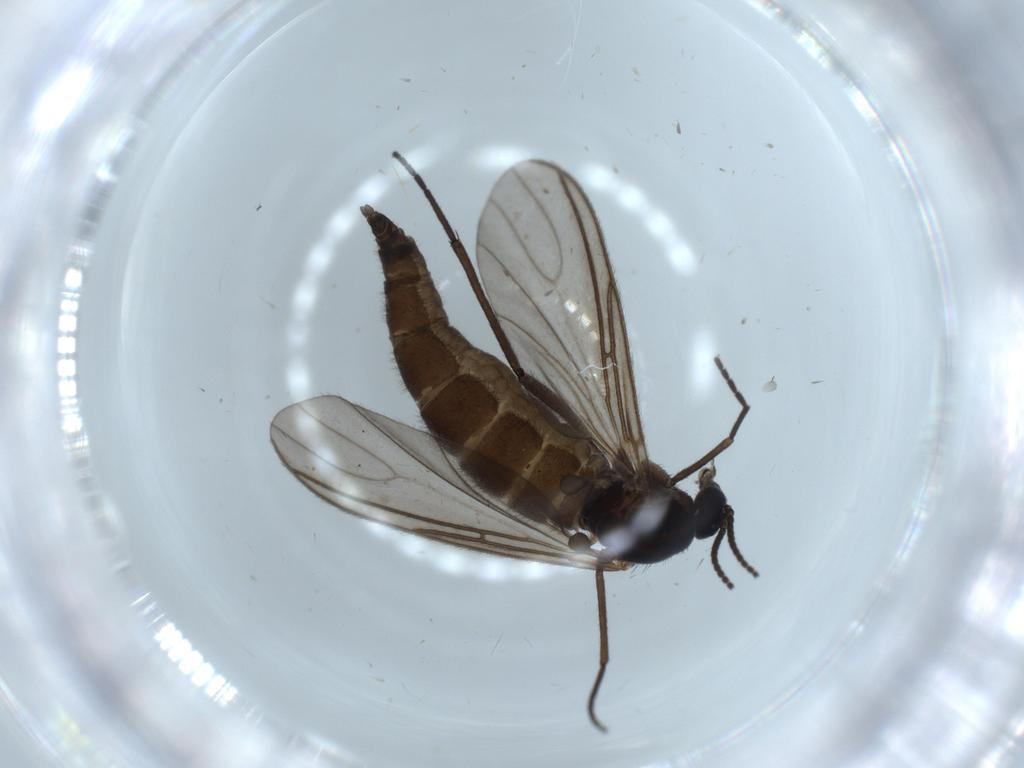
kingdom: Animalia
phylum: Arthropoda
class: Insecta
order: Diptera
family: Sciaridae
